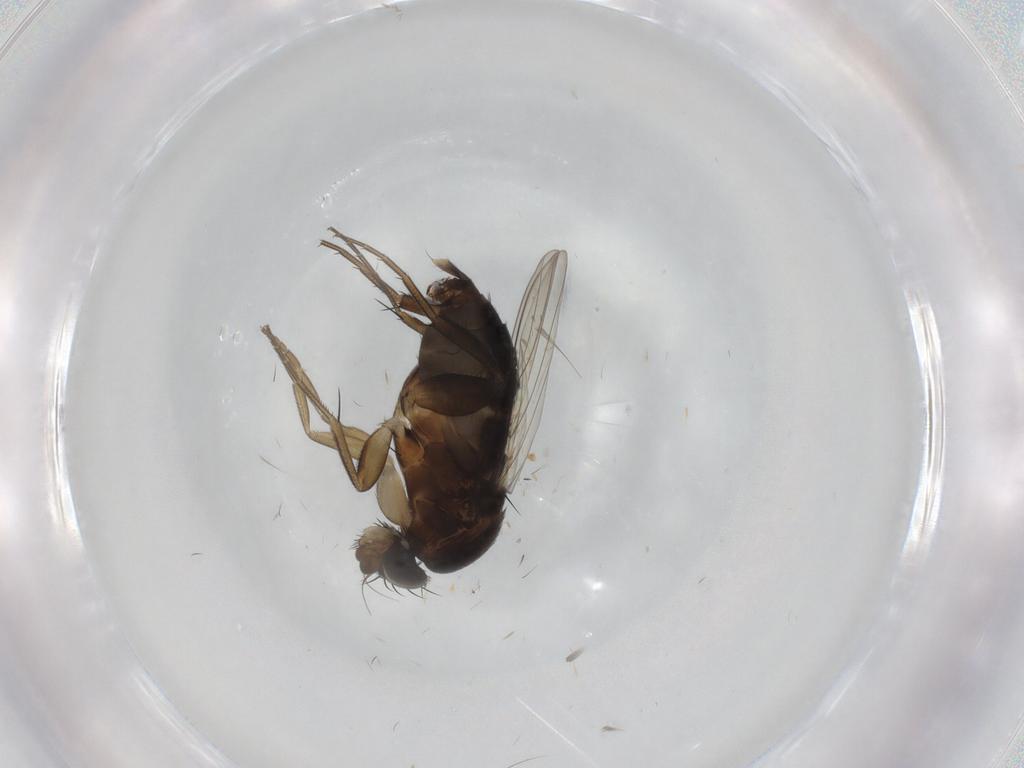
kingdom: Animalia
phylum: Arthropoda
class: Insecta
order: Diptera
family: Phoridae
